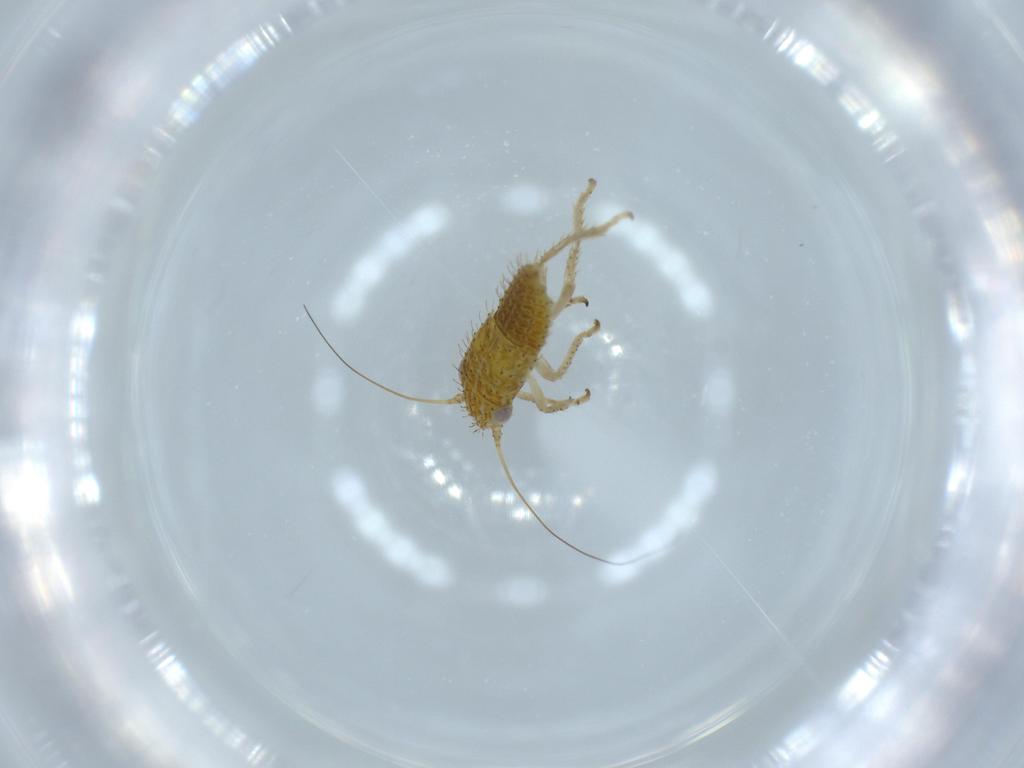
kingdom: Animalia
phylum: Arthropoda
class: Insecta
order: Hemiptera
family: Cicadellidae
